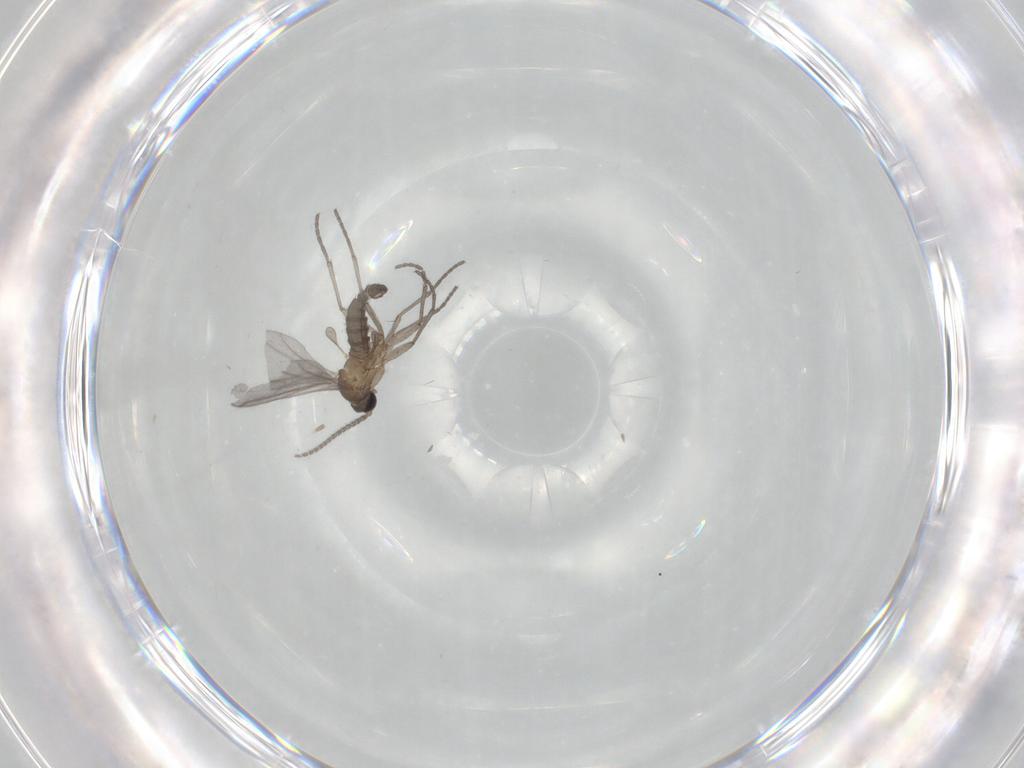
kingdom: Animalia
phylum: Arthropoda
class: Insecta
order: Diptera
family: Sciaridae
